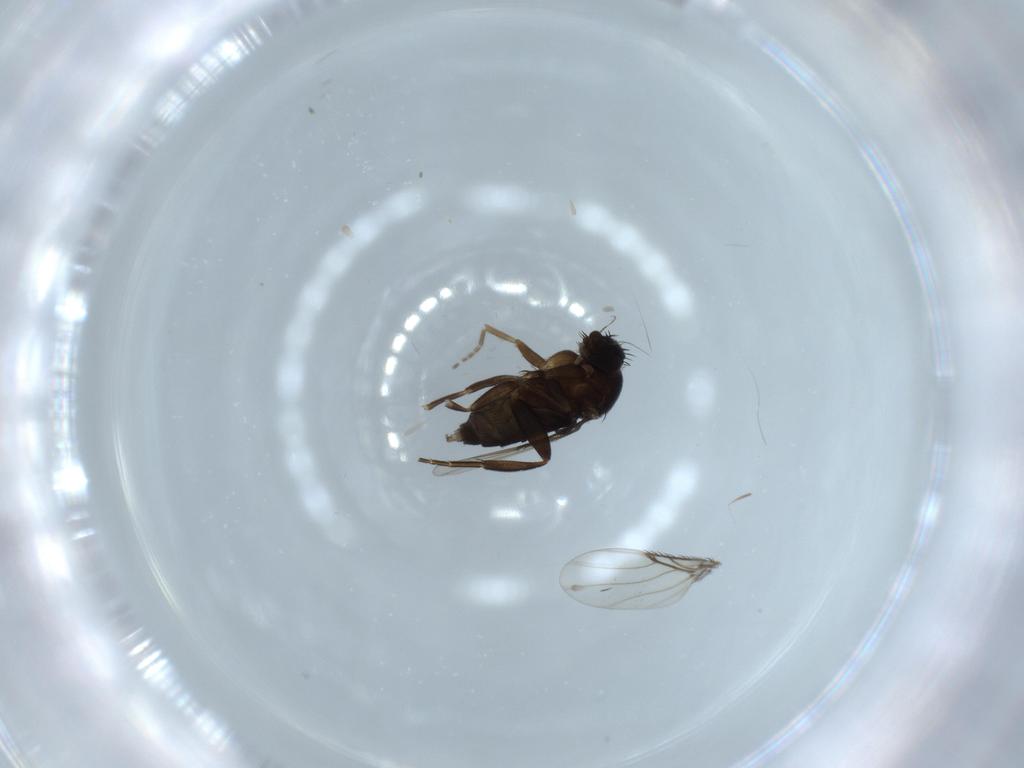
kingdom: Animalia
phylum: Arthropoda
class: Insecta
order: Diptera
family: Phoridae
